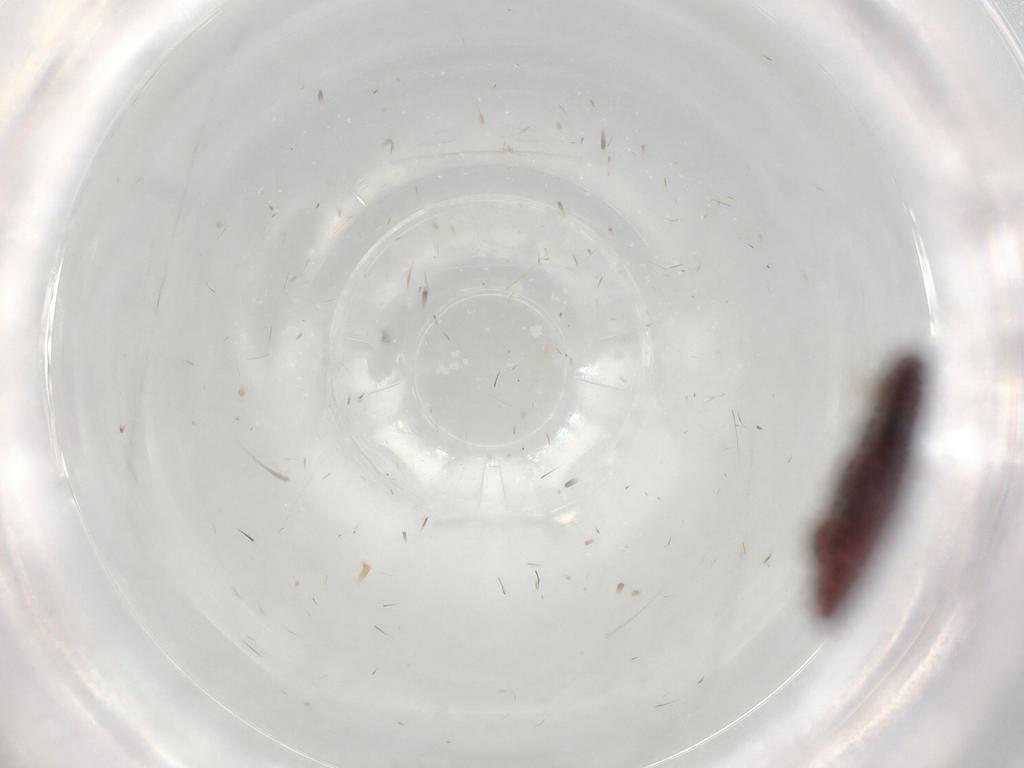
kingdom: Animalia
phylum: Arthropoda
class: Insecta
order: Coleoptera
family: Throscidae
